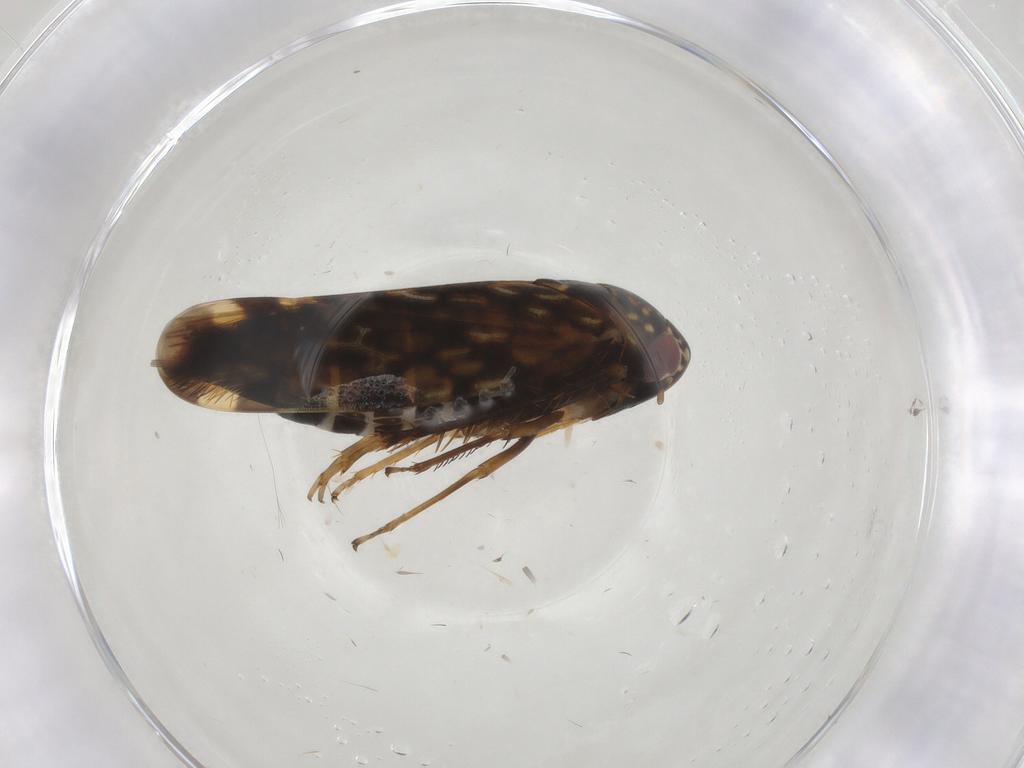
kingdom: Animalia
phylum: Arthropoda
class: Insecta
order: Hemiptera
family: Cicadellidae
